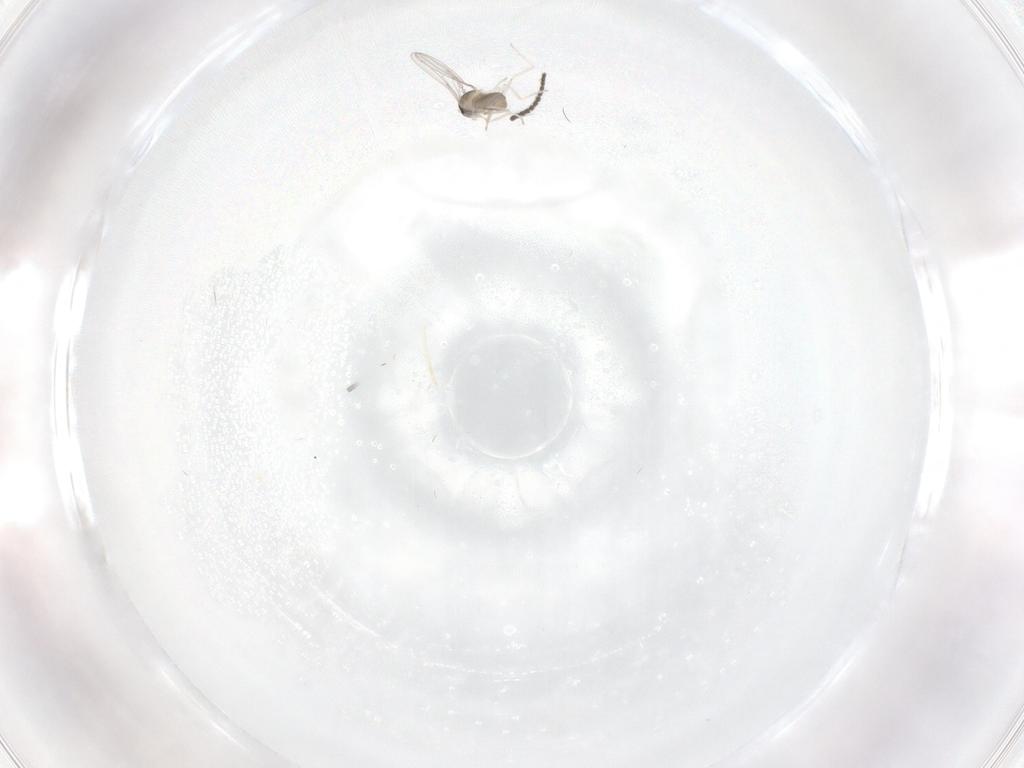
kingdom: Animalia
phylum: Arthropoda
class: Insecta
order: Diptera
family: Cecidomyiidae
